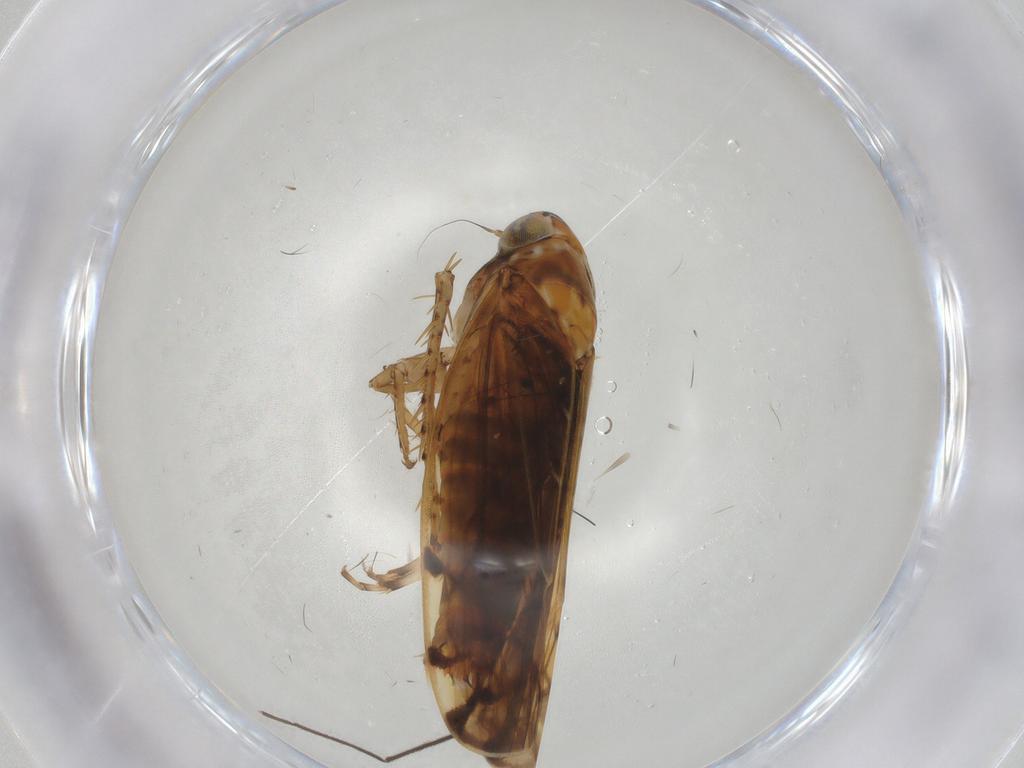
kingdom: Animalia
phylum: Arthropoda
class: Insecta
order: Hemiptera
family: Cicadellidae
